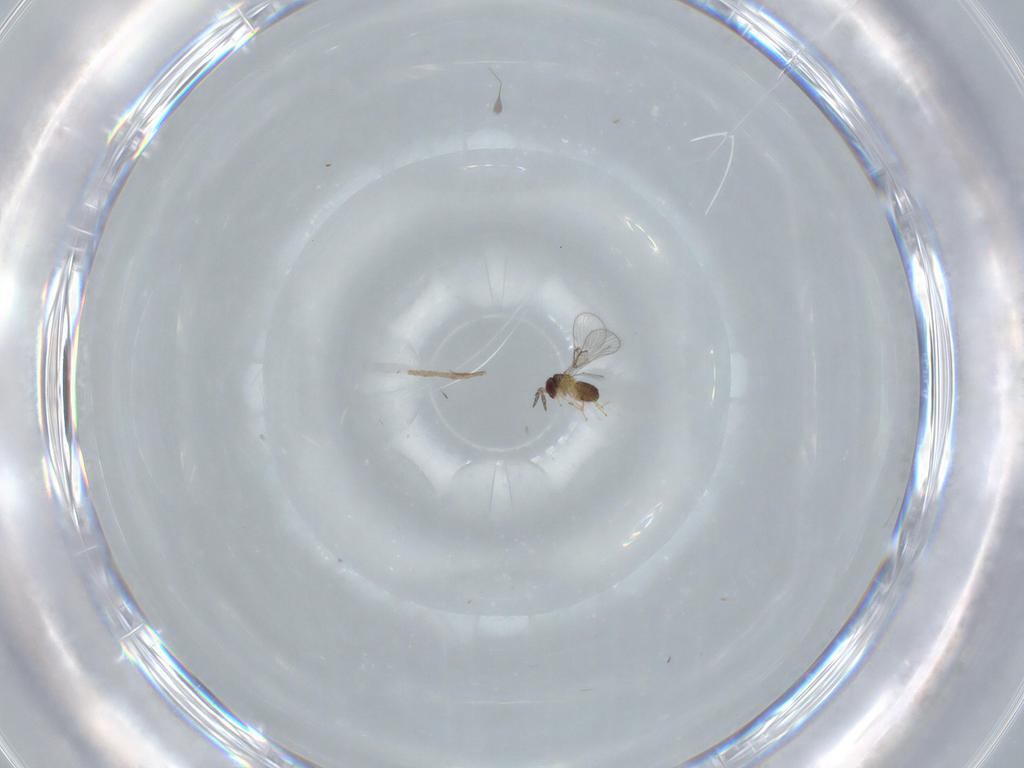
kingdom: Animalia
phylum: Arthropoda
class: Insecta
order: Hymenoptera
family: Trichogrammatidae
